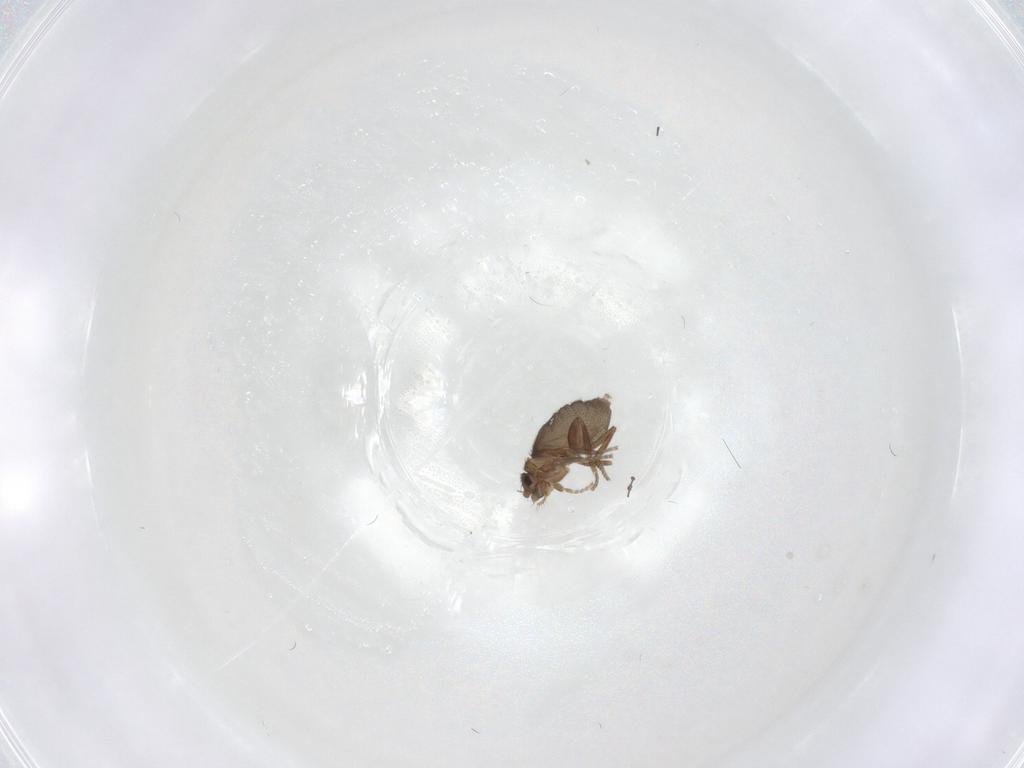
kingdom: Animalia
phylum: Arthropoda
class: Insecta
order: Diptera
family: Phoridae
